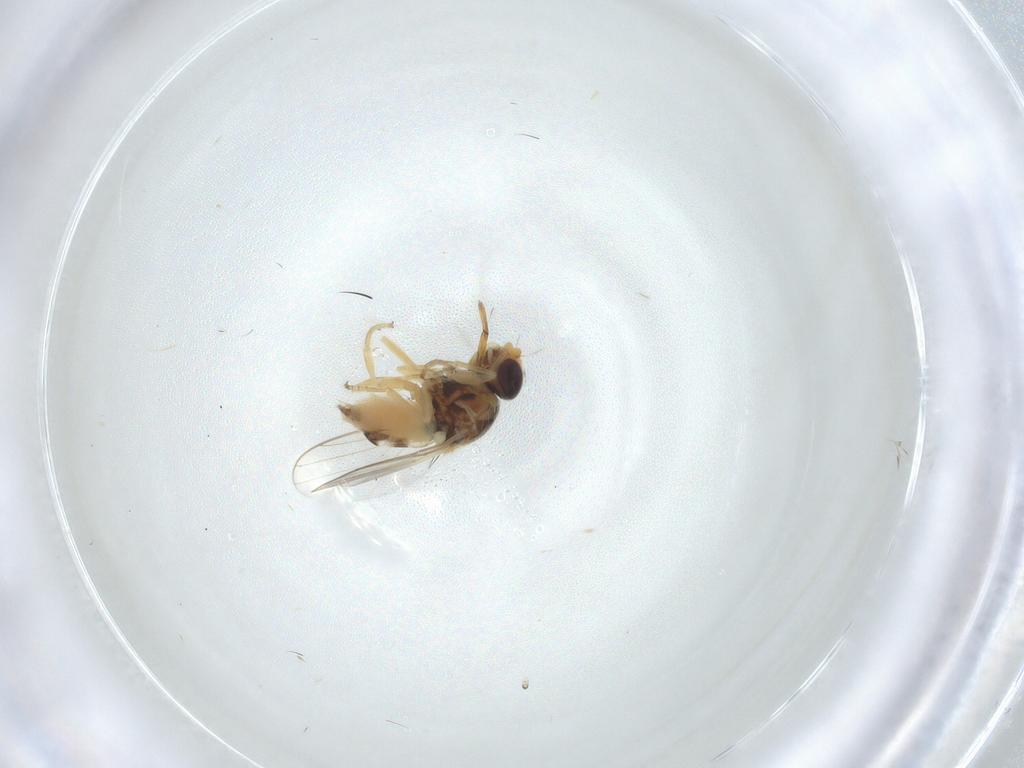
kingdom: Animalia
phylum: Arthropoda
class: Insecta
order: Diptera
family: Chloropidae
